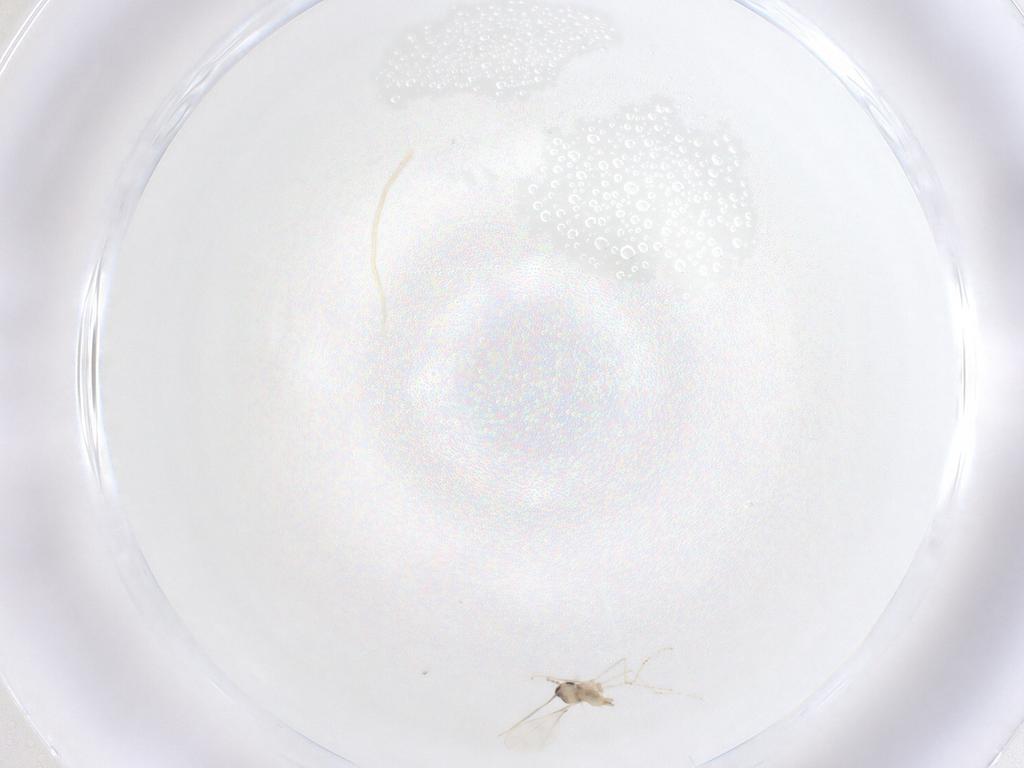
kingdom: Animalia
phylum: Arthropoda
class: Insecta
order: Diptera
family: Cecidomyiidae
